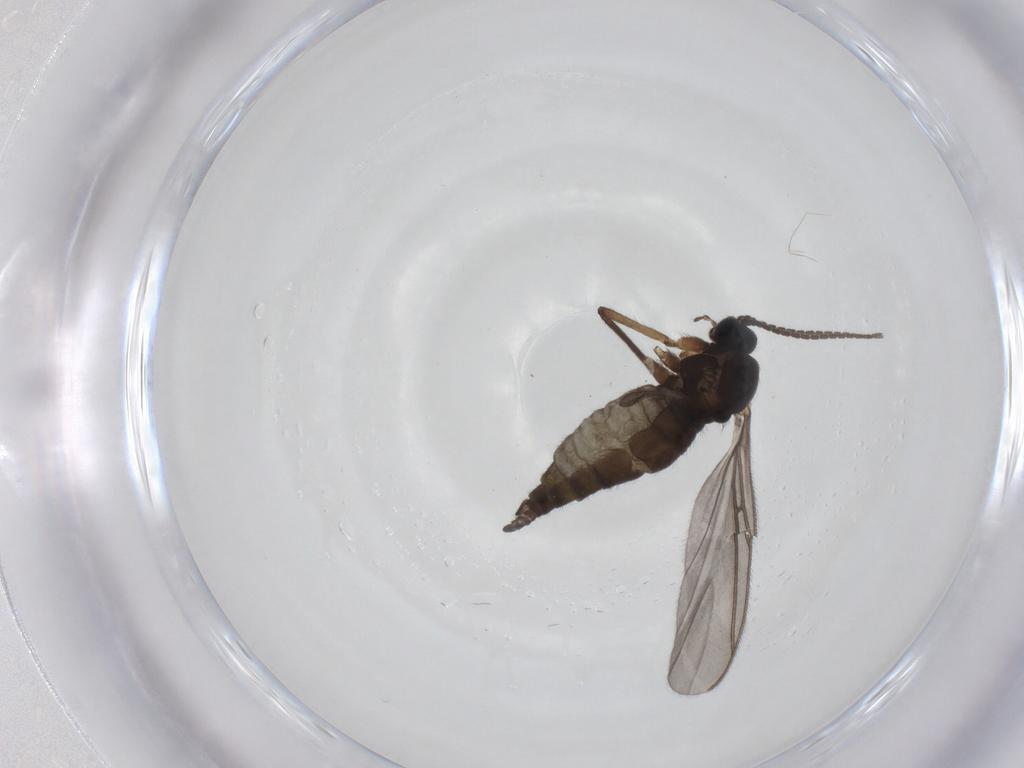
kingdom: Animalia
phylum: Arthropoda
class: Insecta
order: Diptera
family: Sciaridae
